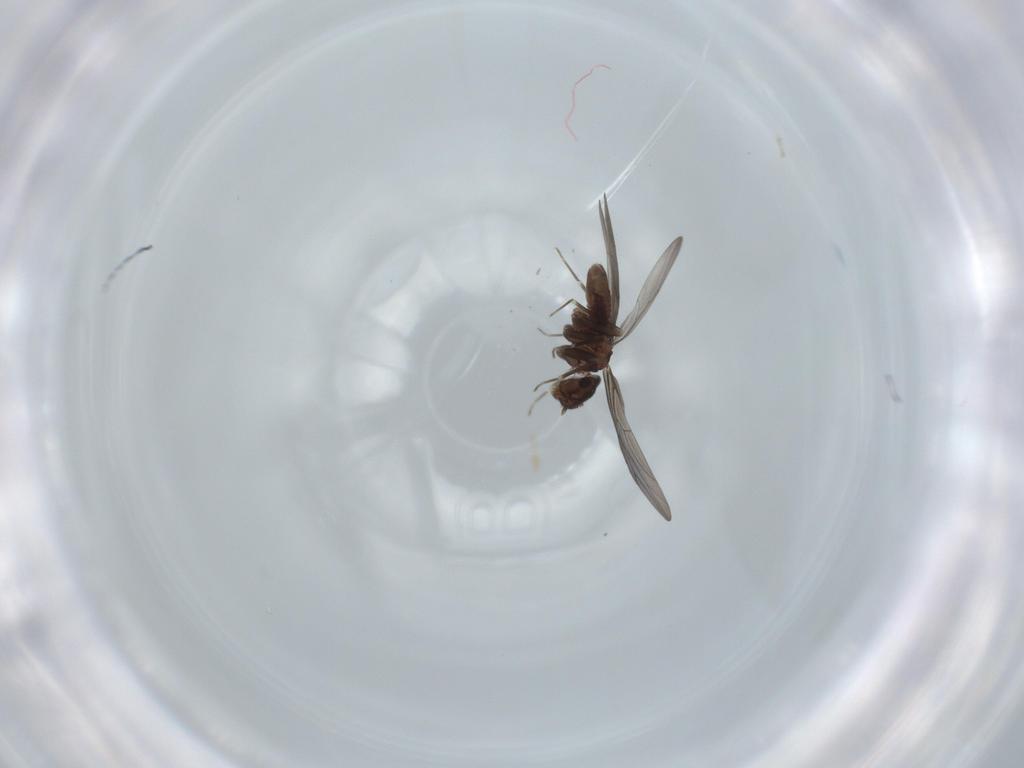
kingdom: Animalia
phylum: Arthropoda
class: Insecta
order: Psocodea
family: Lepidopsocidae
